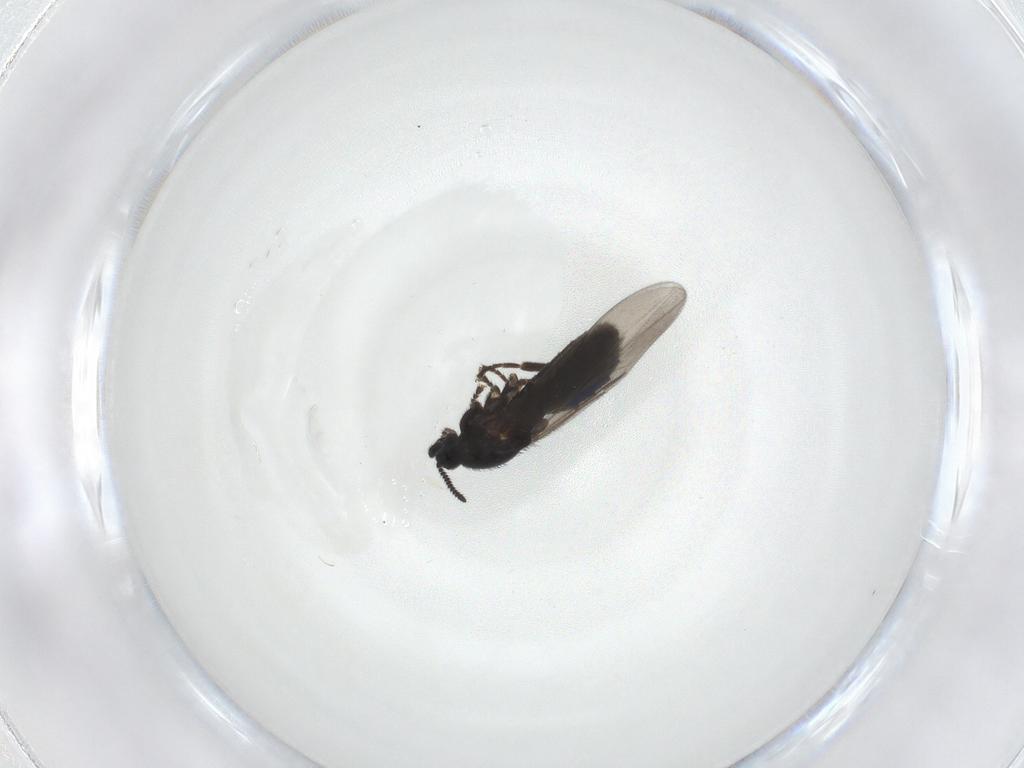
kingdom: Animalia
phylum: Arthropoda
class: Insecta
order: Diptera
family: Scatopsidae
